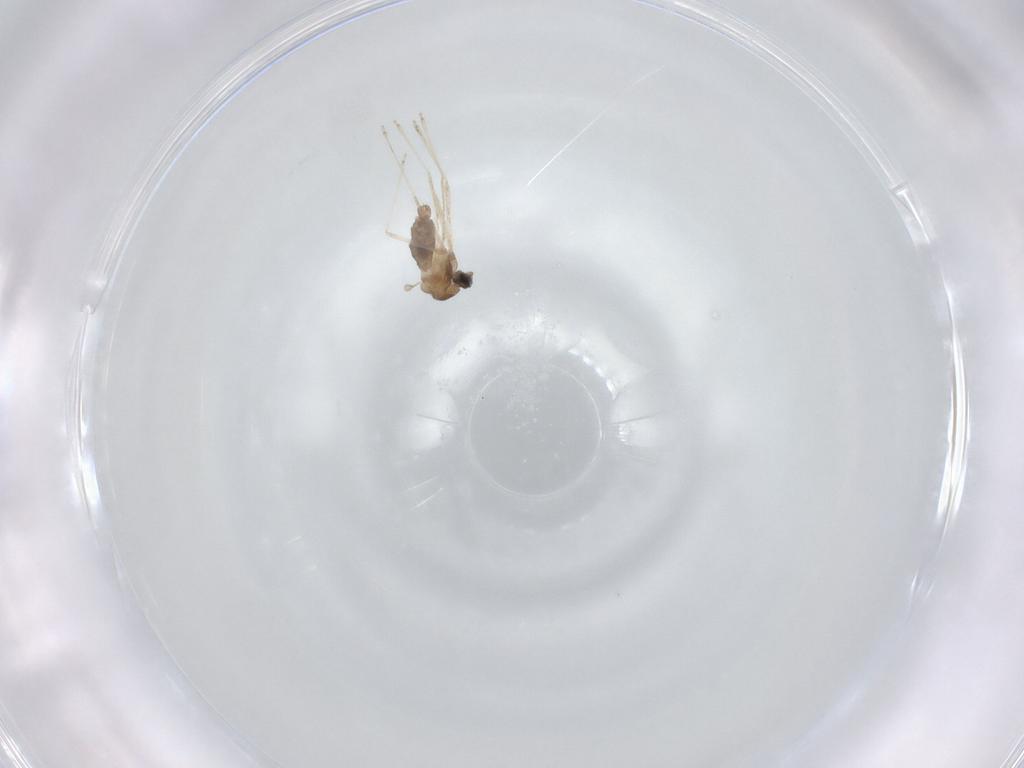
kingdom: Animalia
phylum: Arthropoda
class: Insecta
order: Diptera
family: Cecidomyiidae
